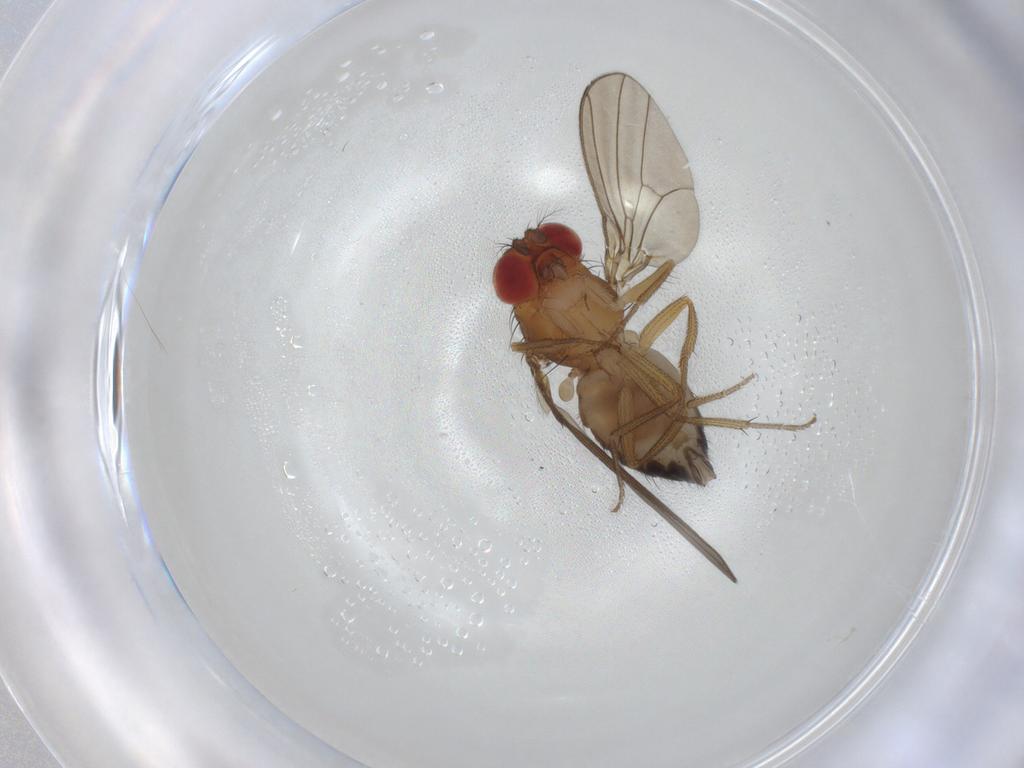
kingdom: Animalia
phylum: Arthropoda
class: Insecta
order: Diptera
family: Drosophilidae
